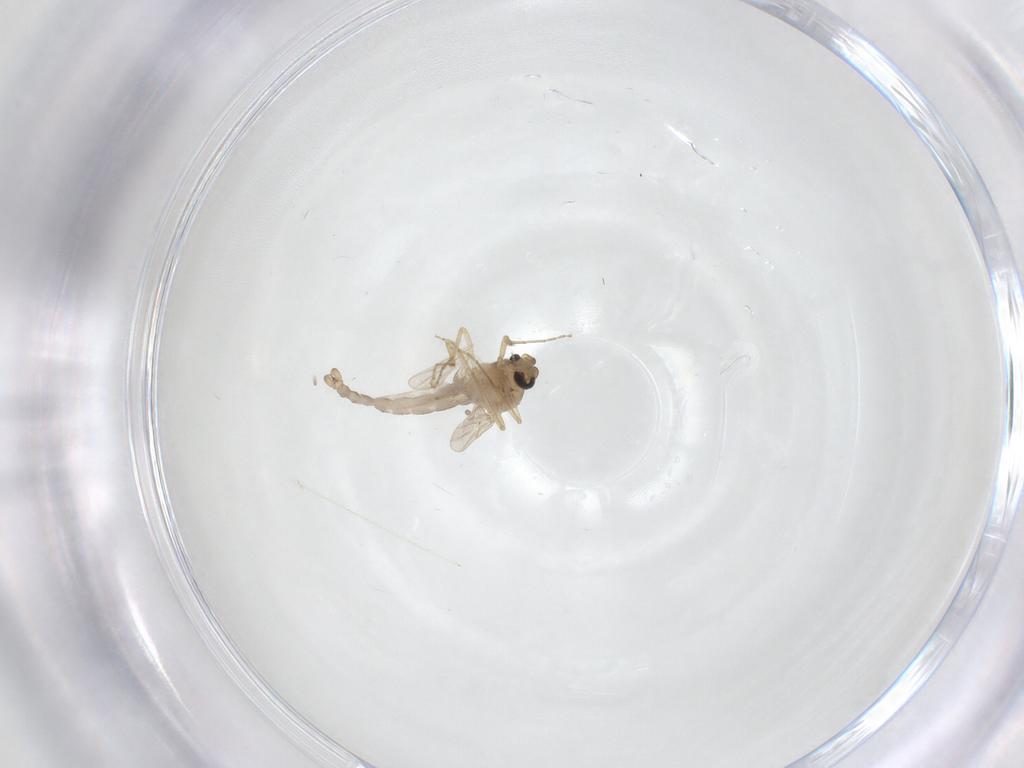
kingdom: Animalia
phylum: Arthropoda
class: Insecta
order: Diptera
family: Ceratopogonidae
